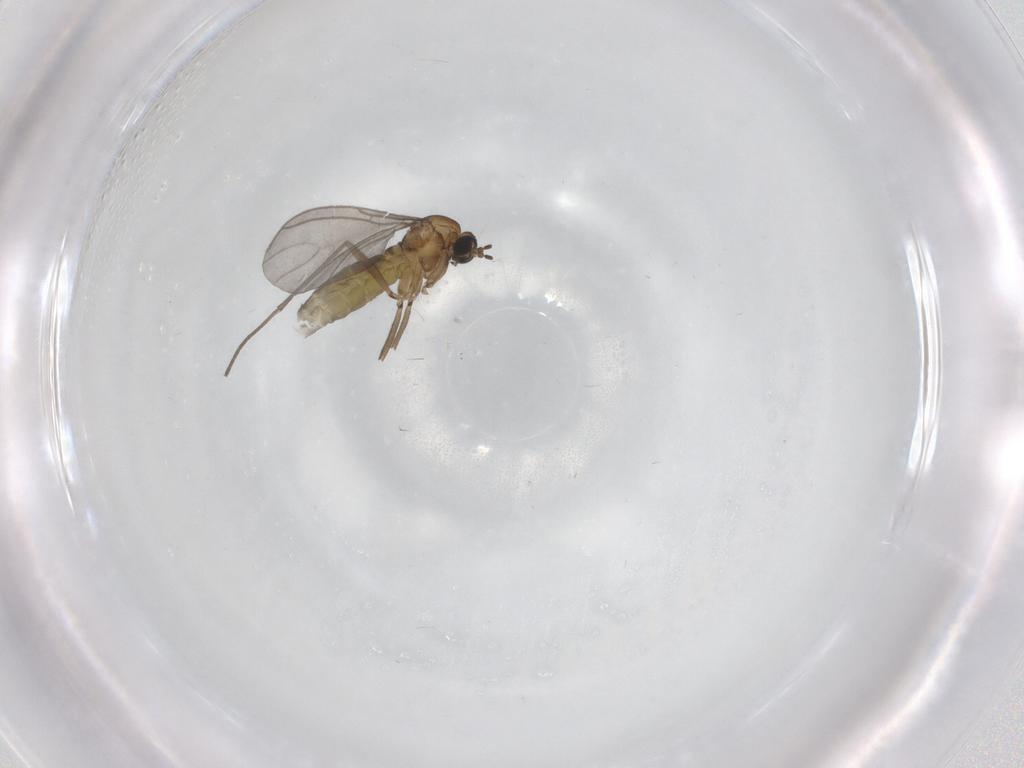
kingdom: Animalia
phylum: Arthropoda
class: Insecta
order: Diptera
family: Sciaridae
